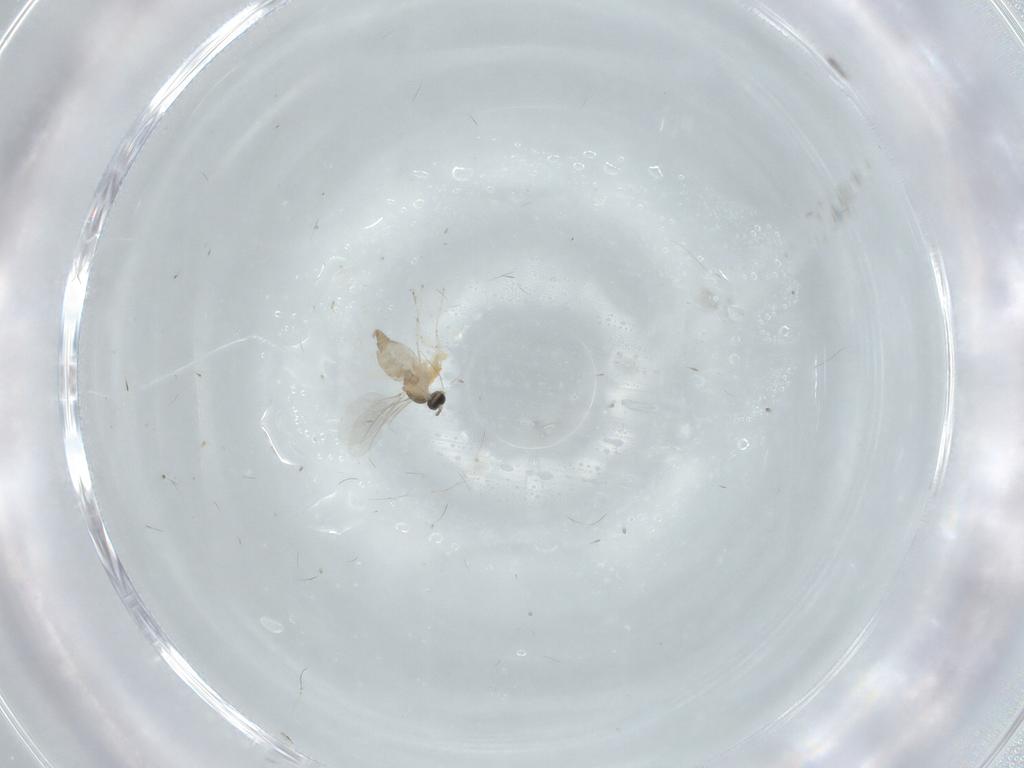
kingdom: Animalia
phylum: Arthropoda
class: Insecta
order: Diptera
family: Cecidomyiidae
